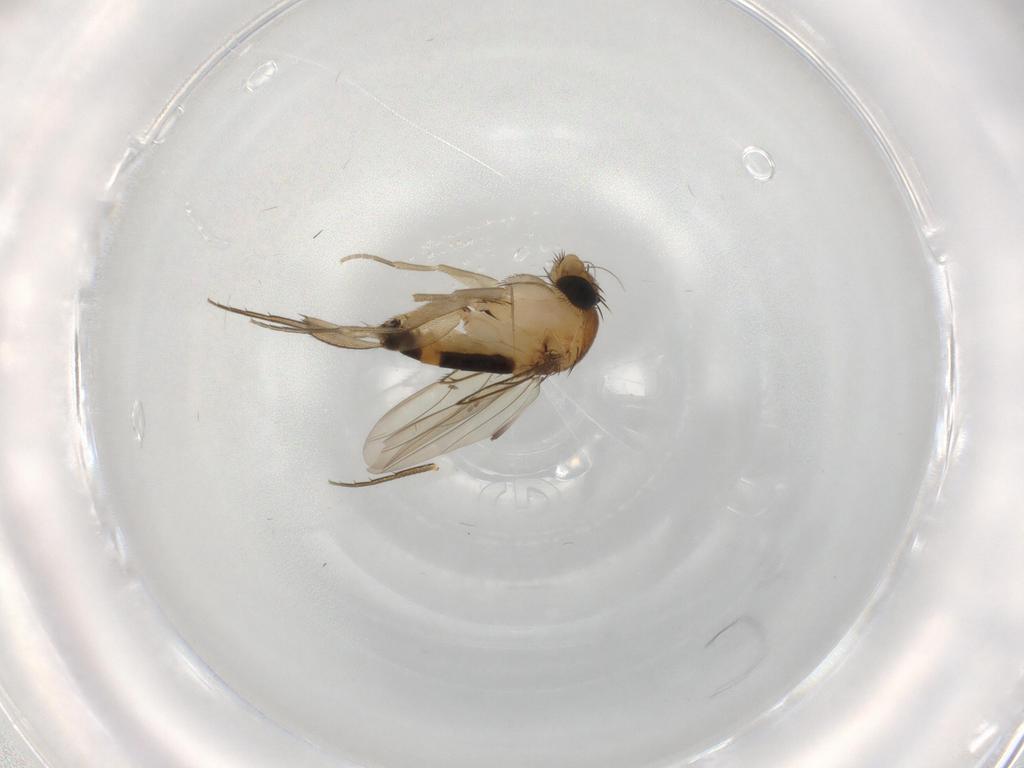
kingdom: Animalia
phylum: Arthropoda
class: Insecta
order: Diptera
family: Phoridae
